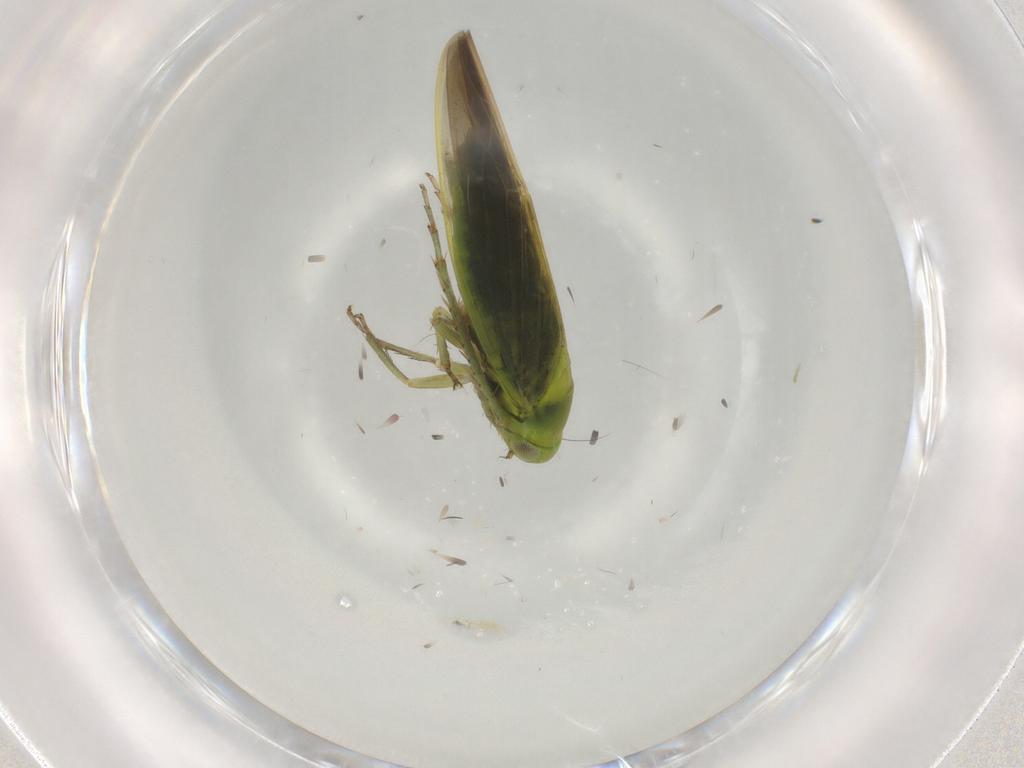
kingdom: Animalia
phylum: Arthropoda
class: Insecta
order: Hemiptera
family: Cicadellidae
